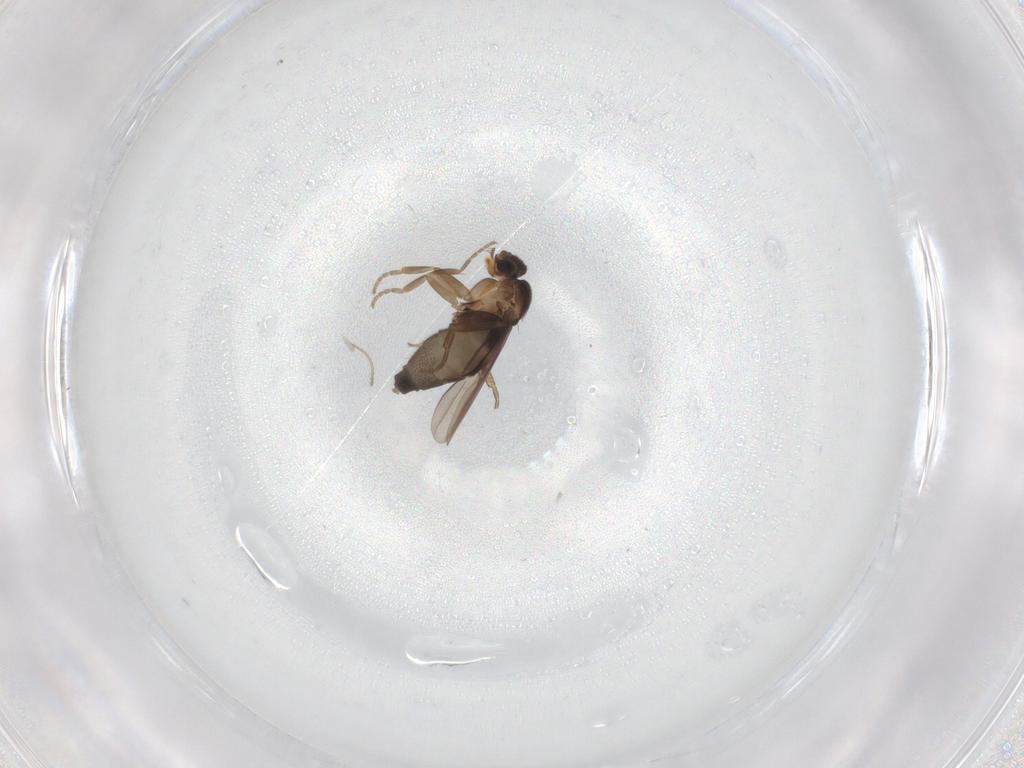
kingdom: Animalia
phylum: Arthropoda
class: Insecta
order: Diptera
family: Phoridae
